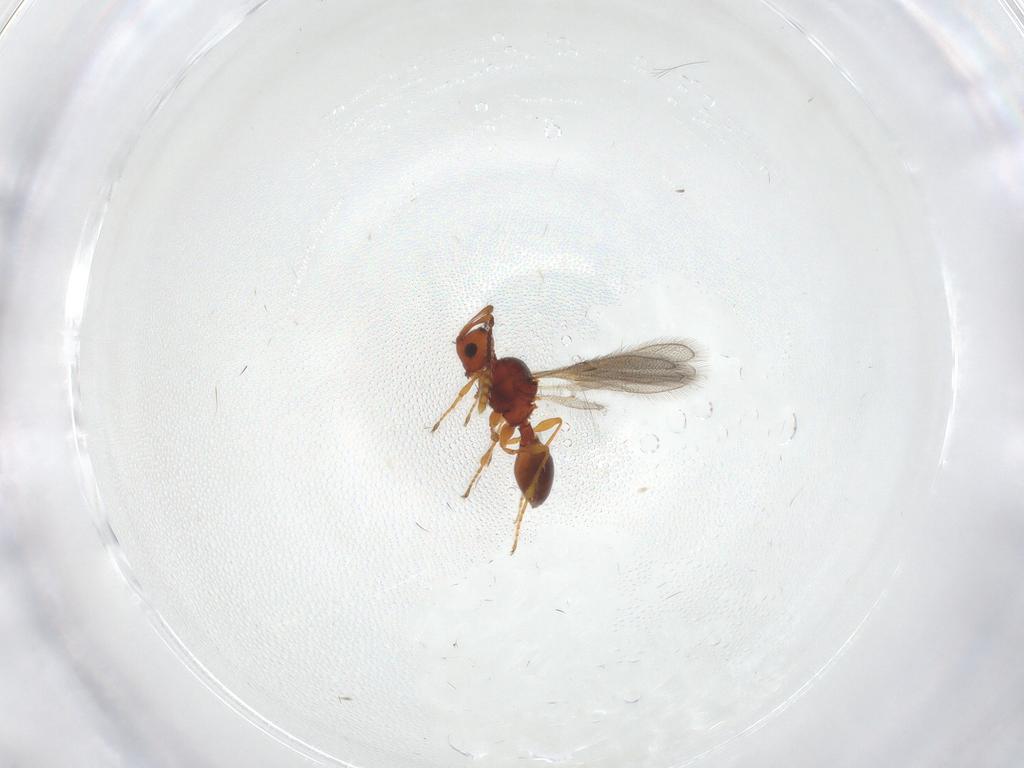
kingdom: Animalia
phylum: Arthropoda
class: Insecta
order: Hymenoptera
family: Diapriidae
